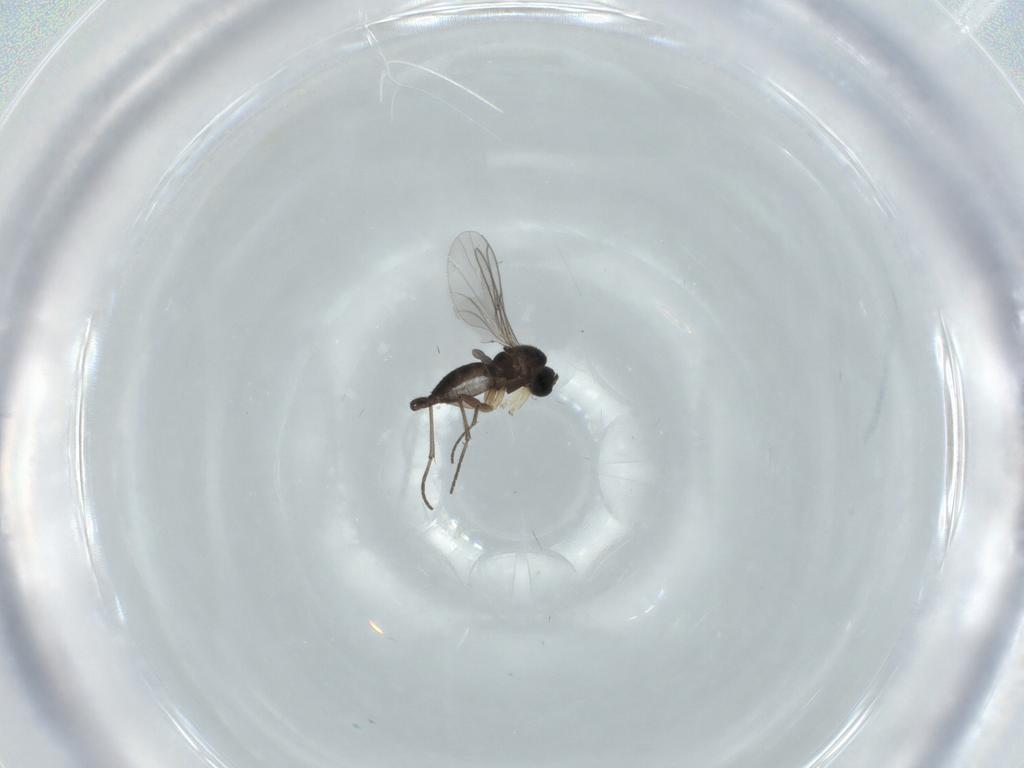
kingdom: Animalia
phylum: Arthropoda
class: Insecta
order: Diptera
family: Sciaridae
